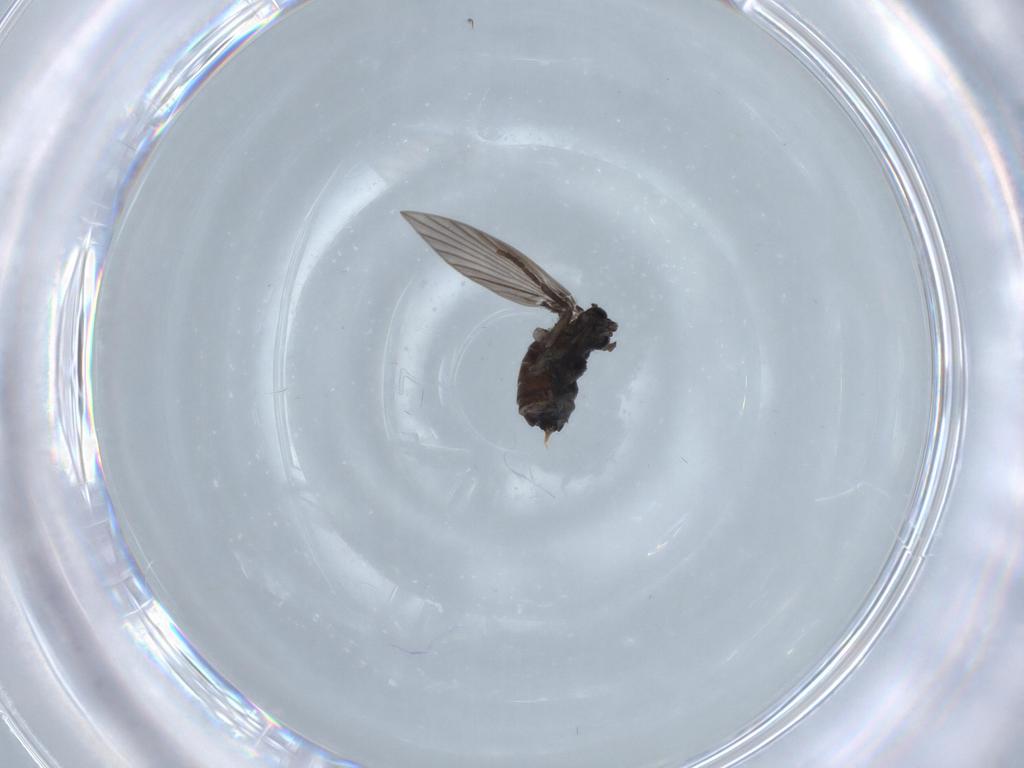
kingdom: Animalia
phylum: Arthropoda
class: Insecta
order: Diptera
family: Psychodidae
